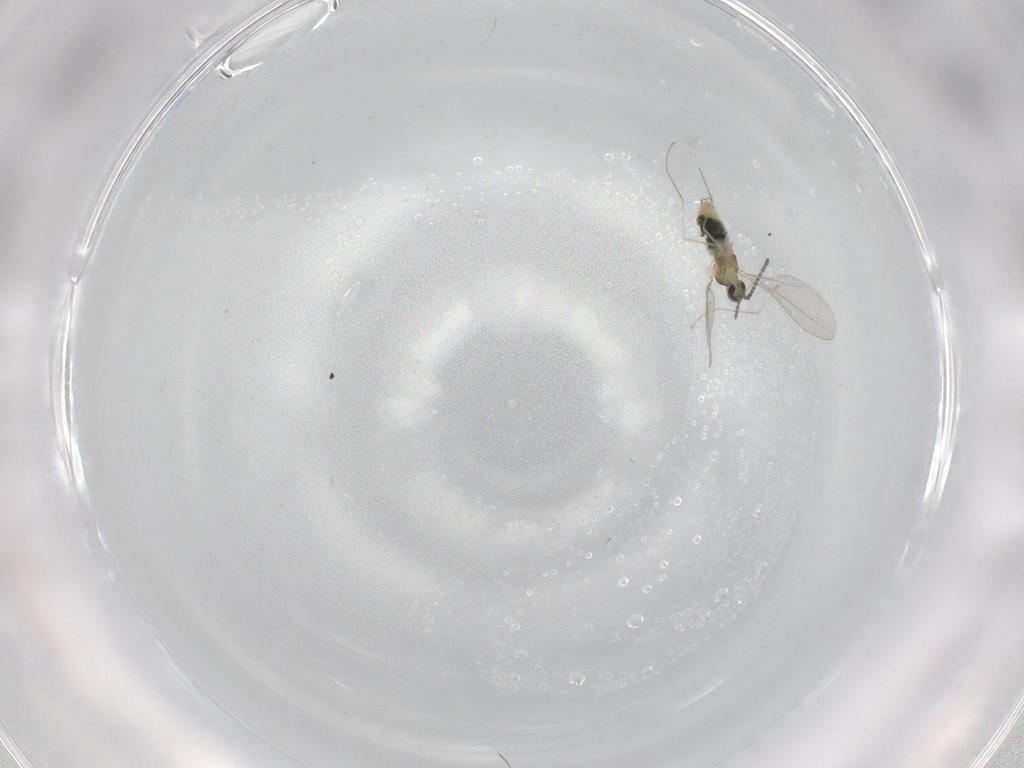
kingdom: Animalia
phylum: Arthropoda
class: Insecta
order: Diptera
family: Cecidomyiidae
